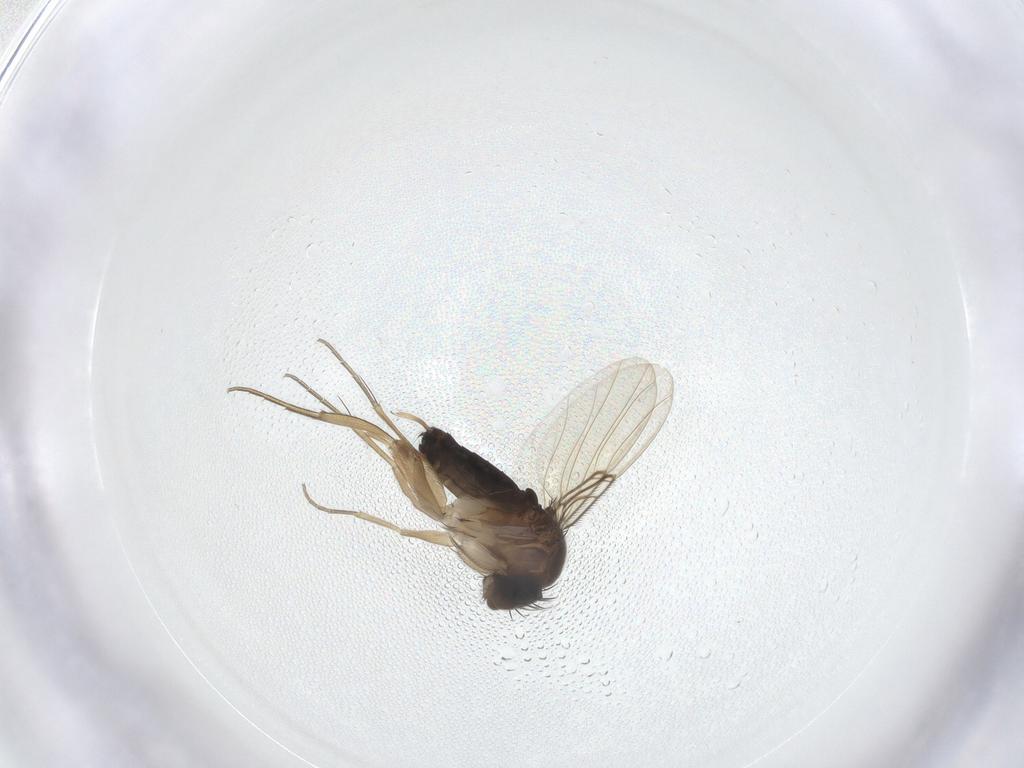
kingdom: Animalia
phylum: Arthropoda
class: Insecta
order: Diptera
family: Phoridae
